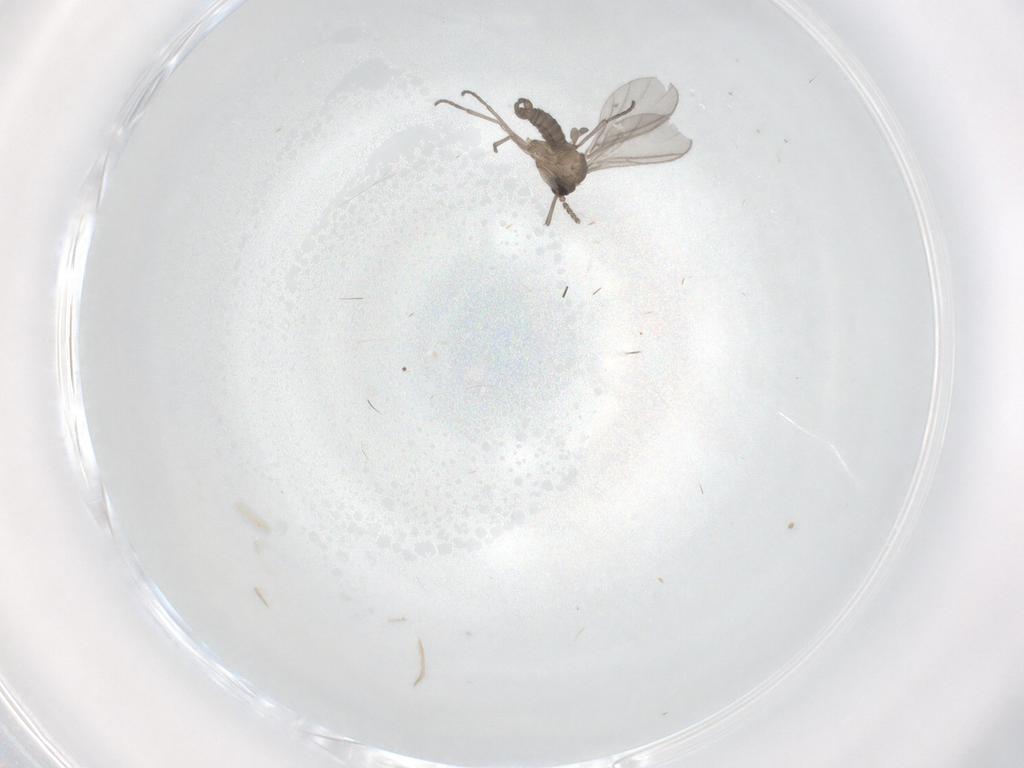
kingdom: Animalia
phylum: Arthropoda
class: Insecta
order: Diptera
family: Sciaridae
